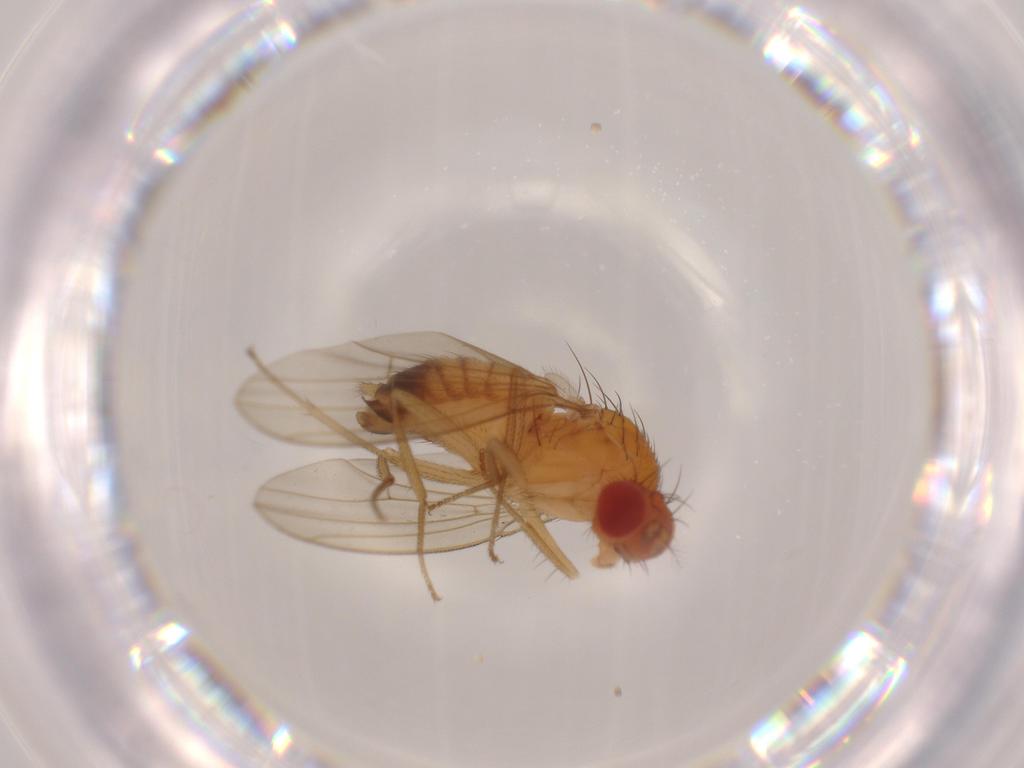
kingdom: Animalia
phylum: Arthropoda
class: Insecta
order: Diptera
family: Drosophilidae
